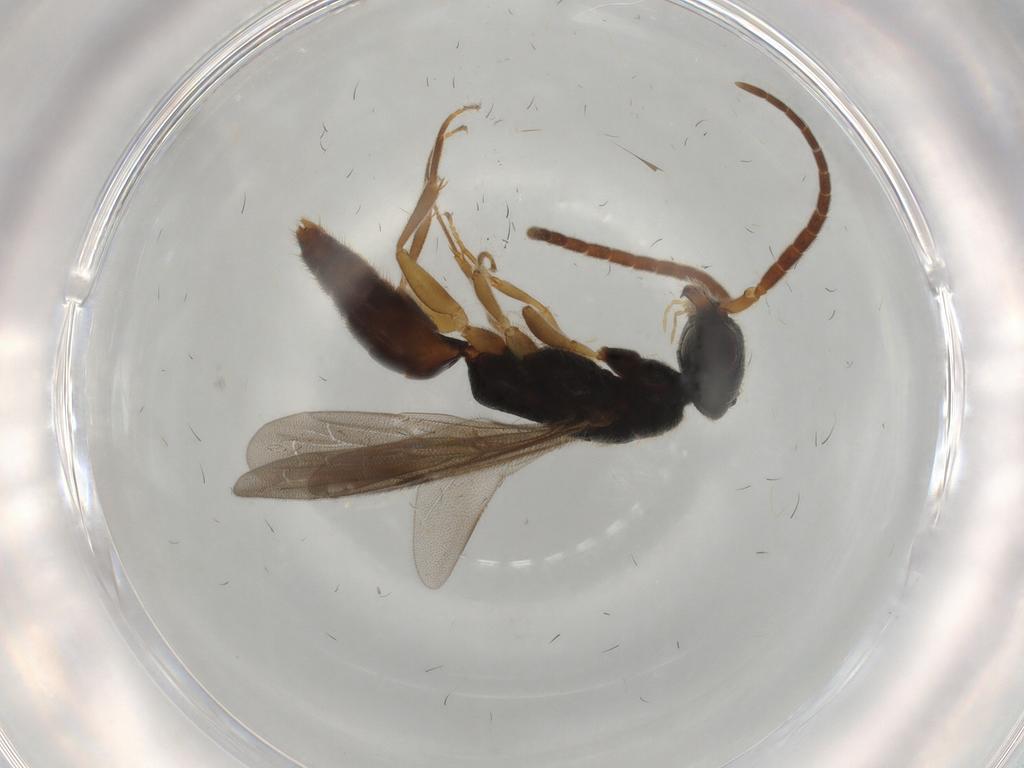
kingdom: Animalia
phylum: Arthropoda
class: Insecta
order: Hymenoptera
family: Bethylidae
